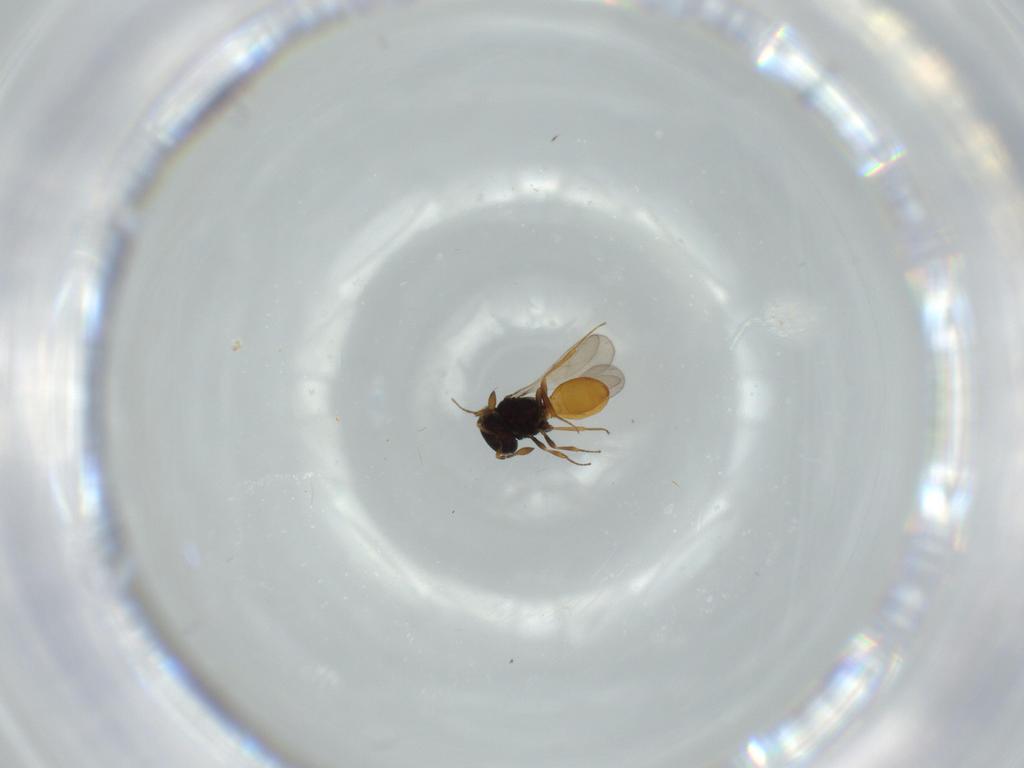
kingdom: Animalia
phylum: Arthropoda
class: Insecta
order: Hymenoptera
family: Scelionidae
